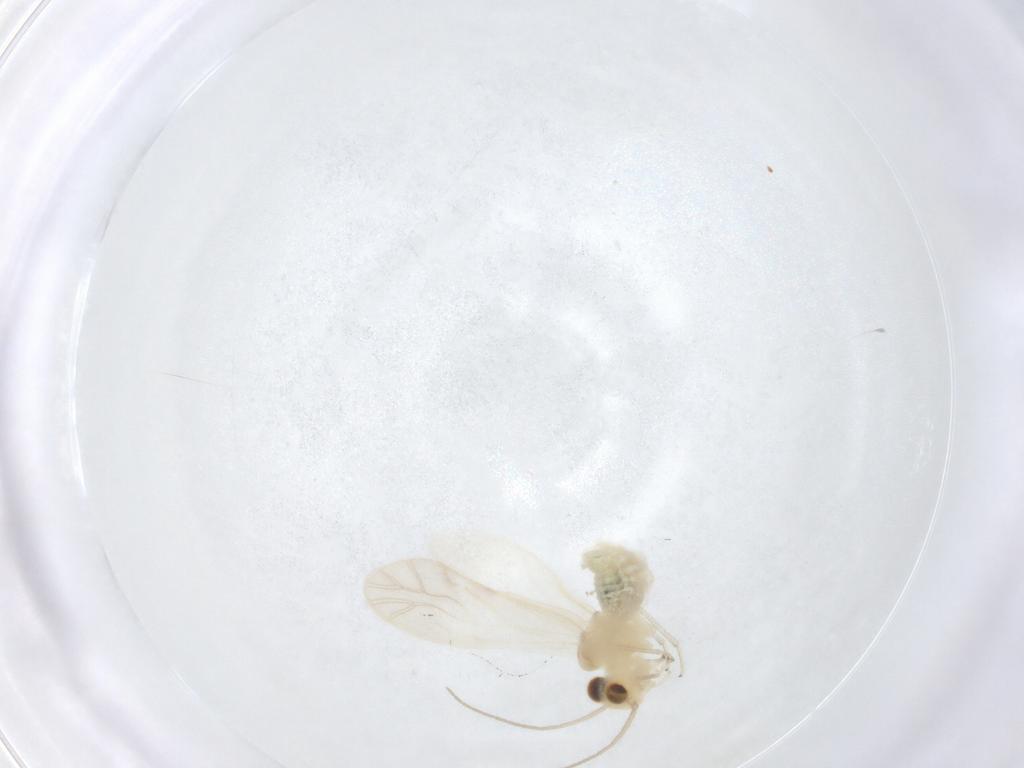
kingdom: Animalia
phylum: Arthropoda
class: Insecta
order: Psocodea
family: Caeciliusidae
